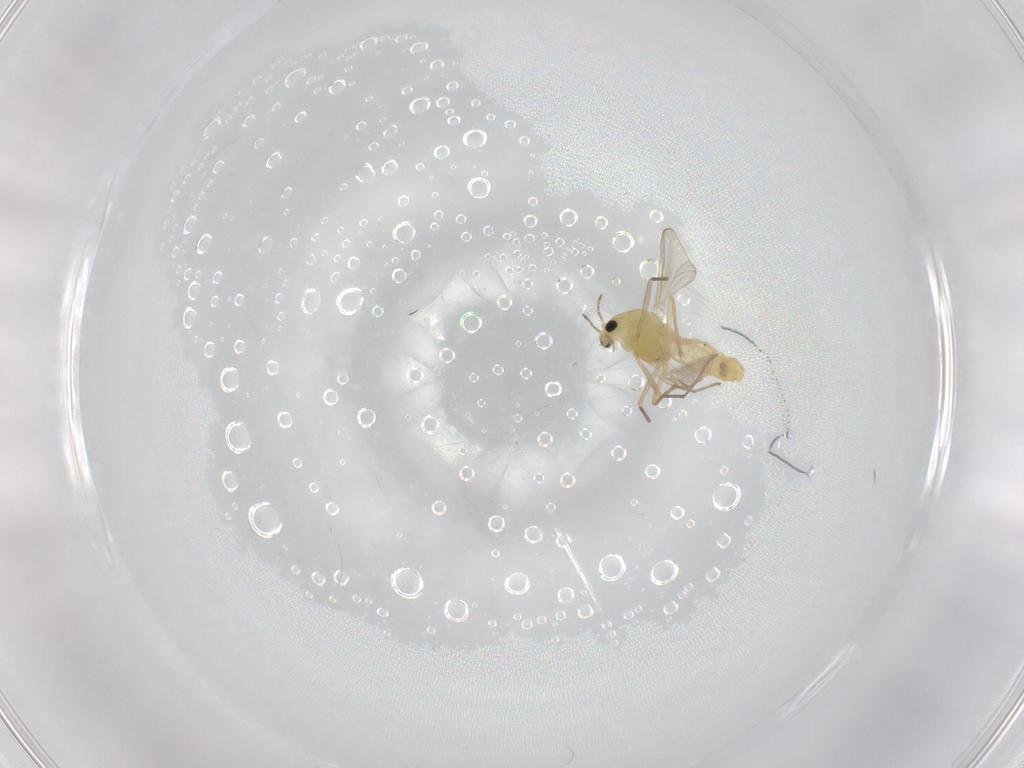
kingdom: Animalia
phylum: Arthropoda
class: Insecta
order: Diptera
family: Chironomidae
